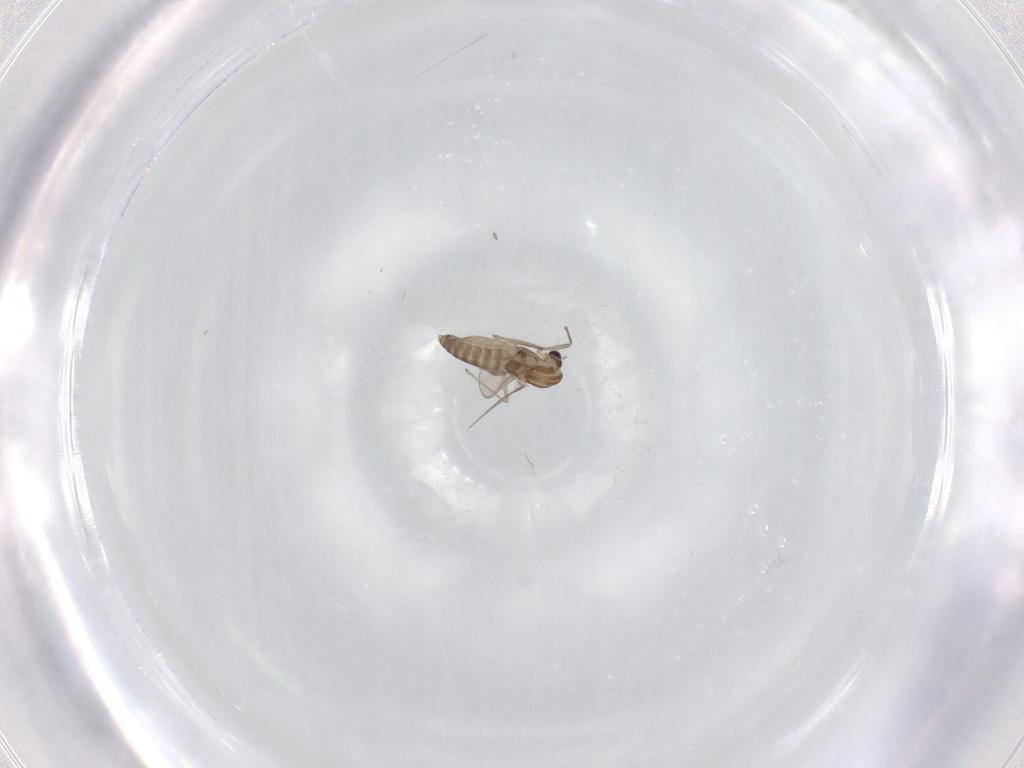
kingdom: Animalia
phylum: Arthropoda
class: Insecta
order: Diptera
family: Chironomidae
